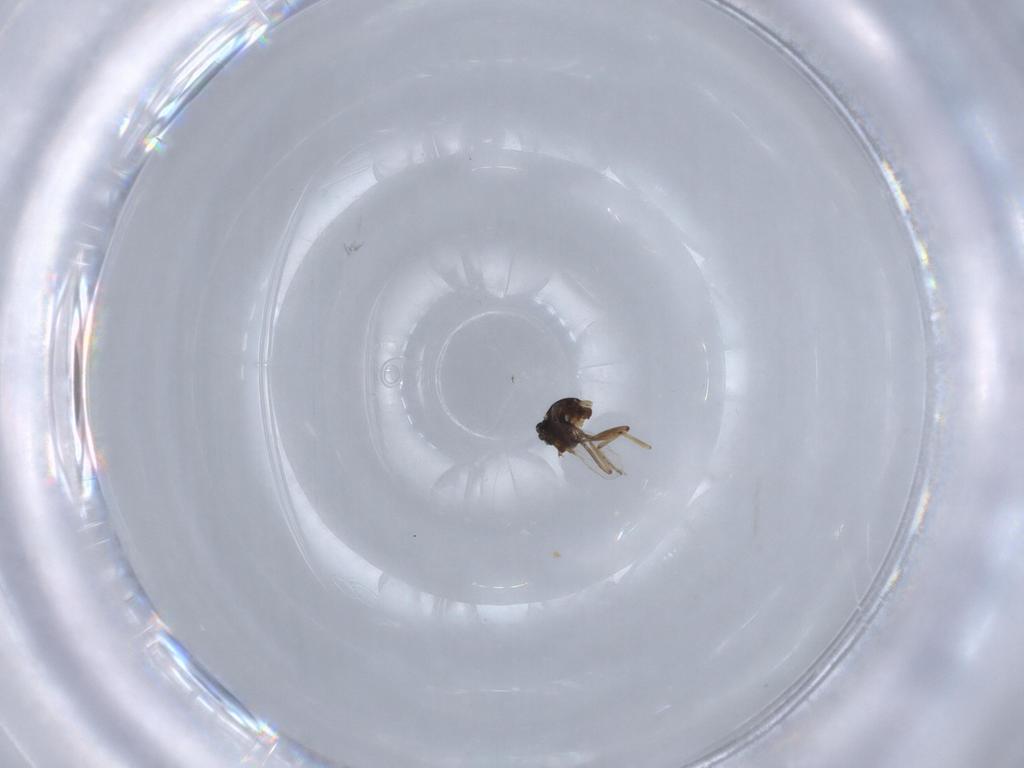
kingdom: Animalia
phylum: Arthropoda
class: Insecta
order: Diptera
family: Ceratopogonidae
